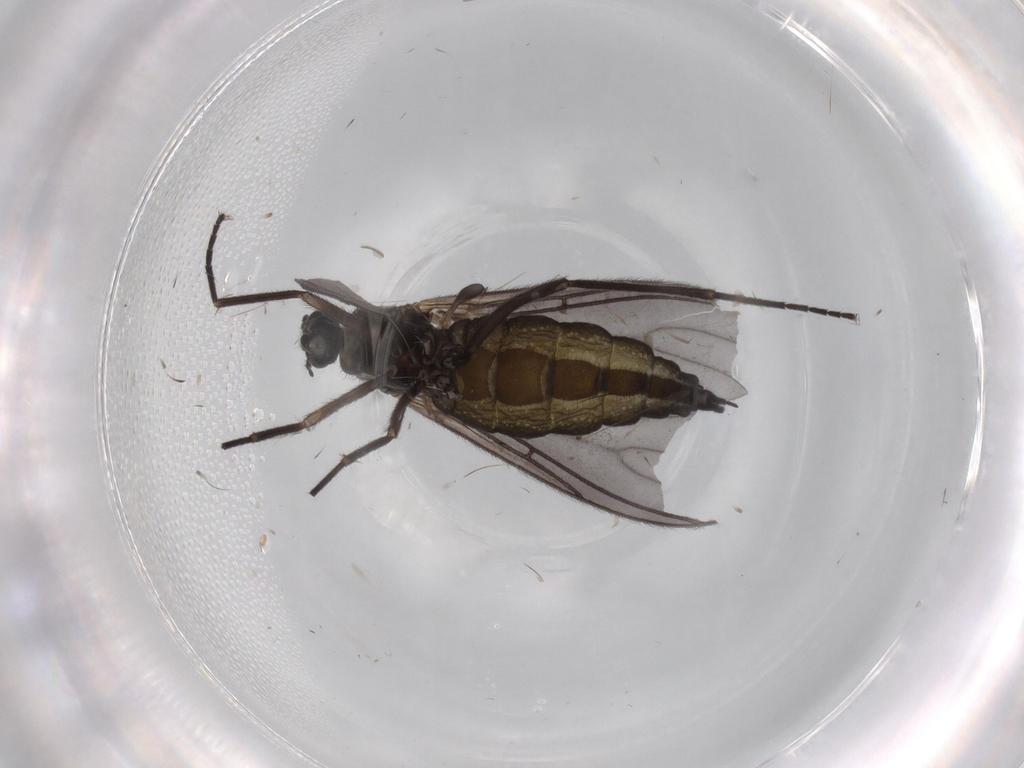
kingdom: Animalia
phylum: Arthropoda
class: Insecta
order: Diptera
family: Sciaridae
